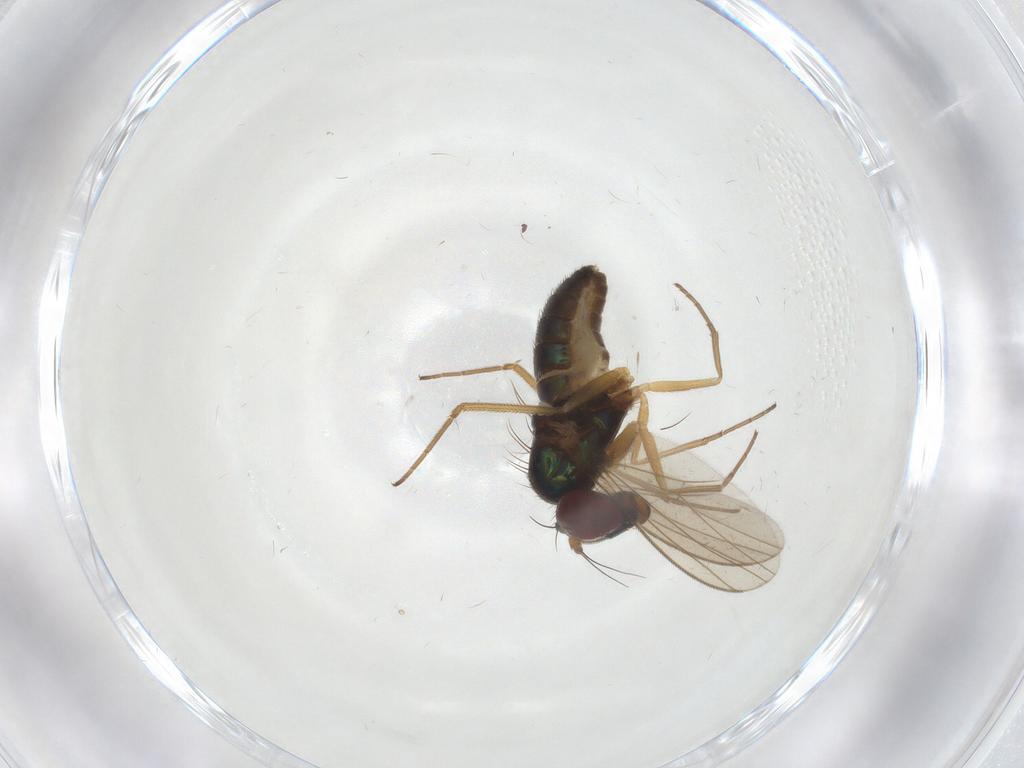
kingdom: Animalia
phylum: Arthropoda
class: Insecta
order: Diptera
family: Dolichopodidae
